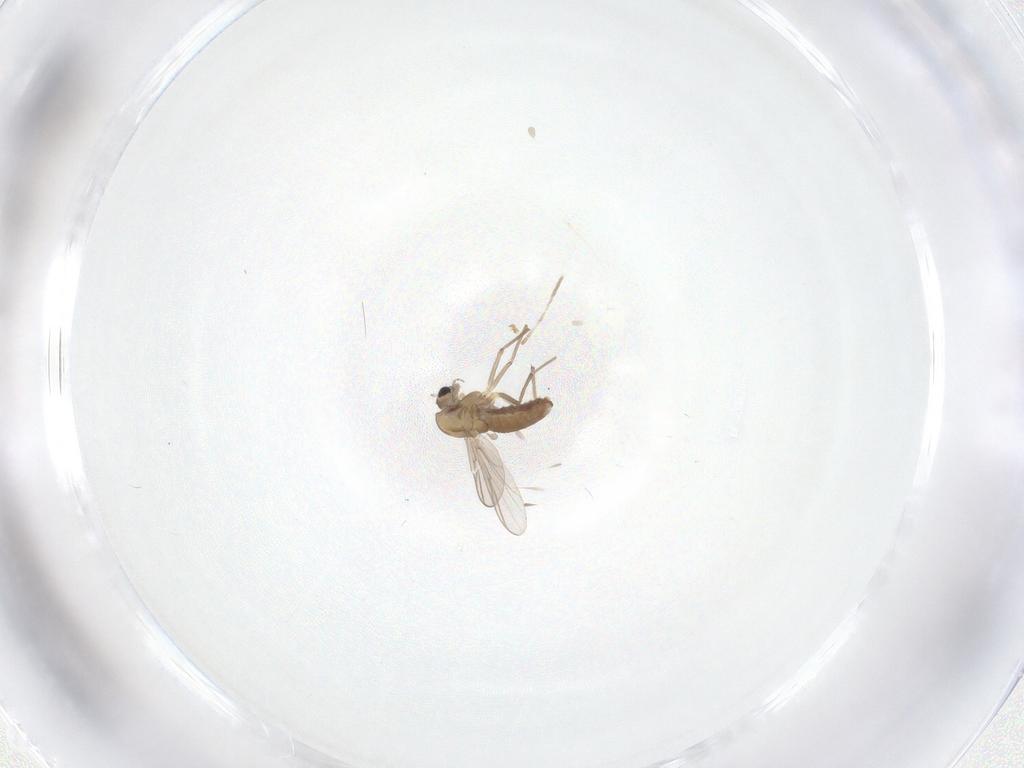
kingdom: Animalia
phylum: Arthropoda
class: Insecta
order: Diptera
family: Chironomidae
